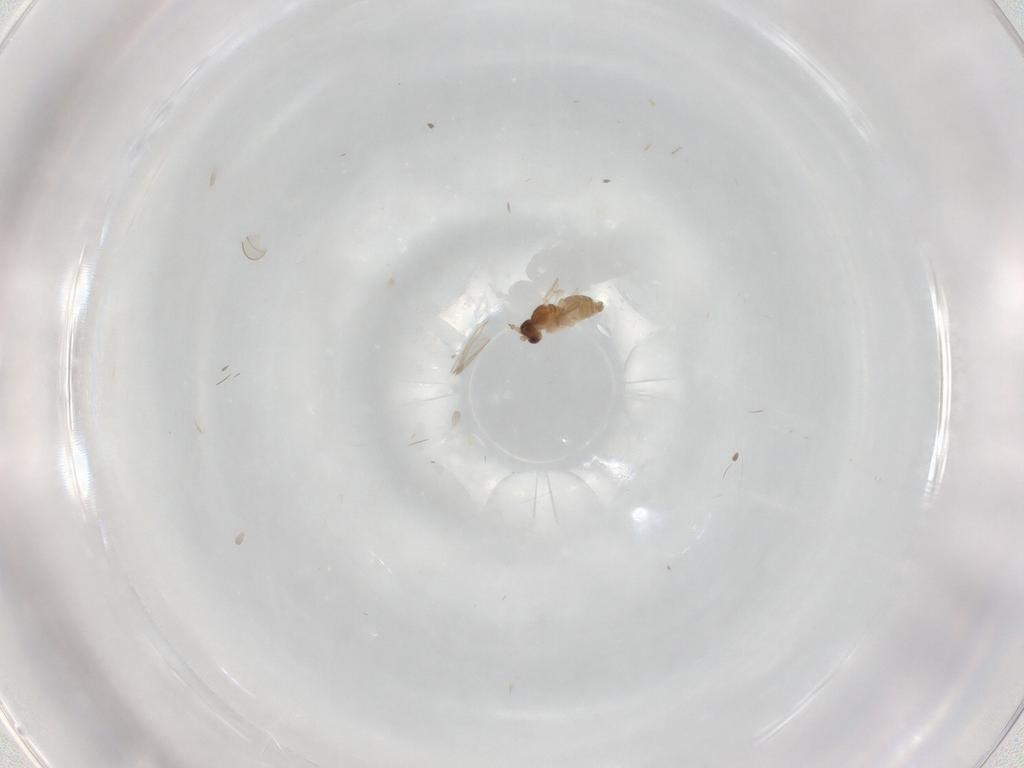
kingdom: Animalia
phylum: Arthropoda
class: Insecta
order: Diptera
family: Cecidomyiidae
